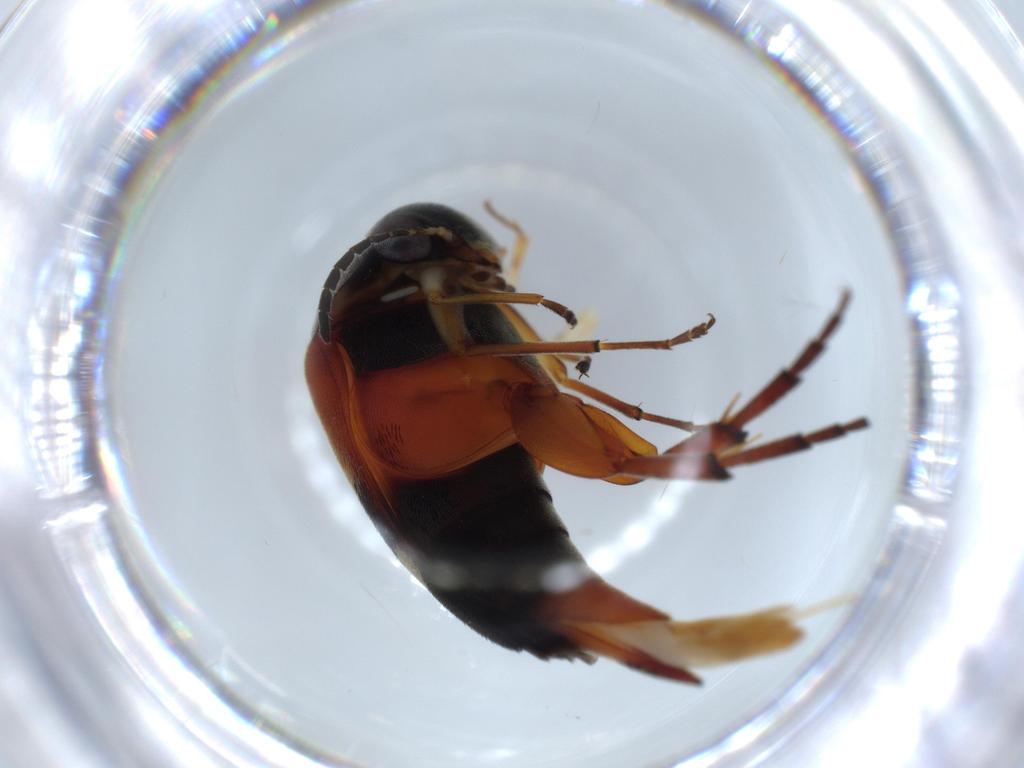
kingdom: Animalia
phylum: Arthropoda
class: Insecta
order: Coleoptera
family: Mordellidae
